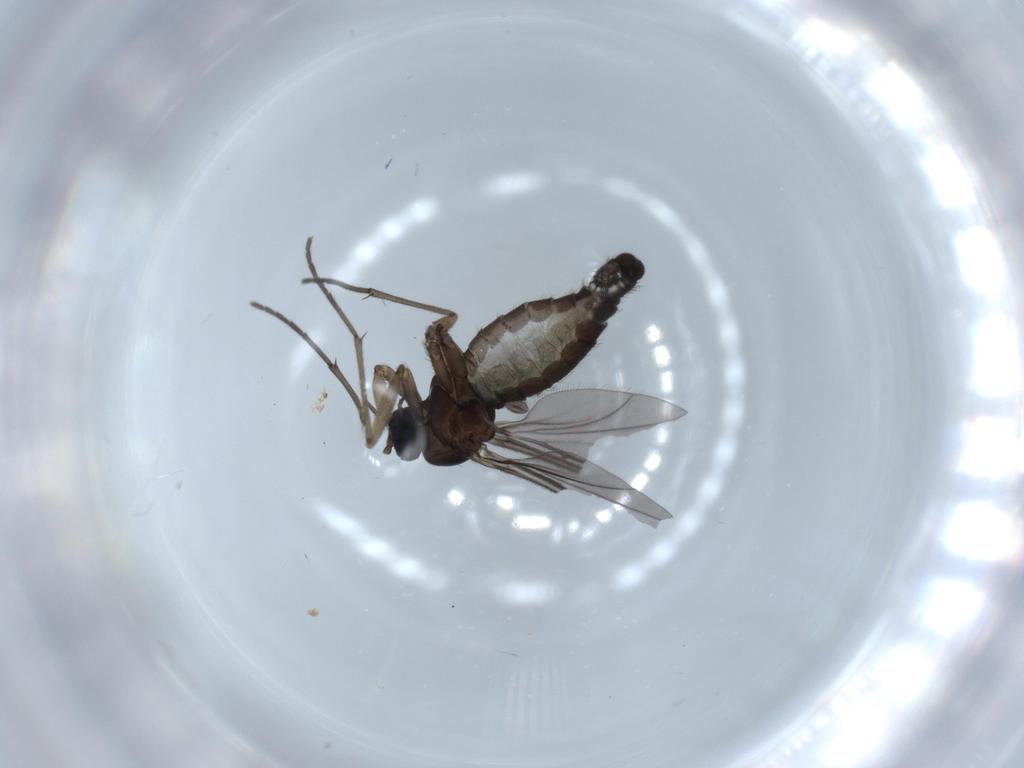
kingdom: Animalia
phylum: Arthropoda
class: Insecta
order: Diptera
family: Sciaridae
